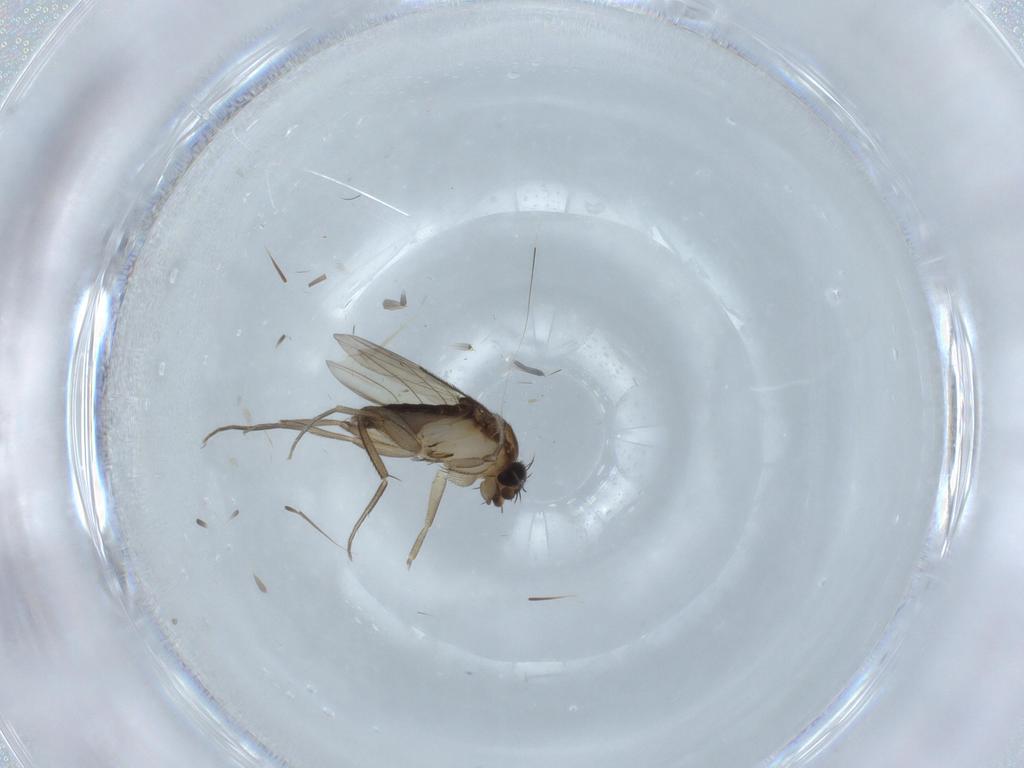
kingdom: Animalia
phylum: Arthropoda
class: Insecta
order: Diptera
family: Phoridae
